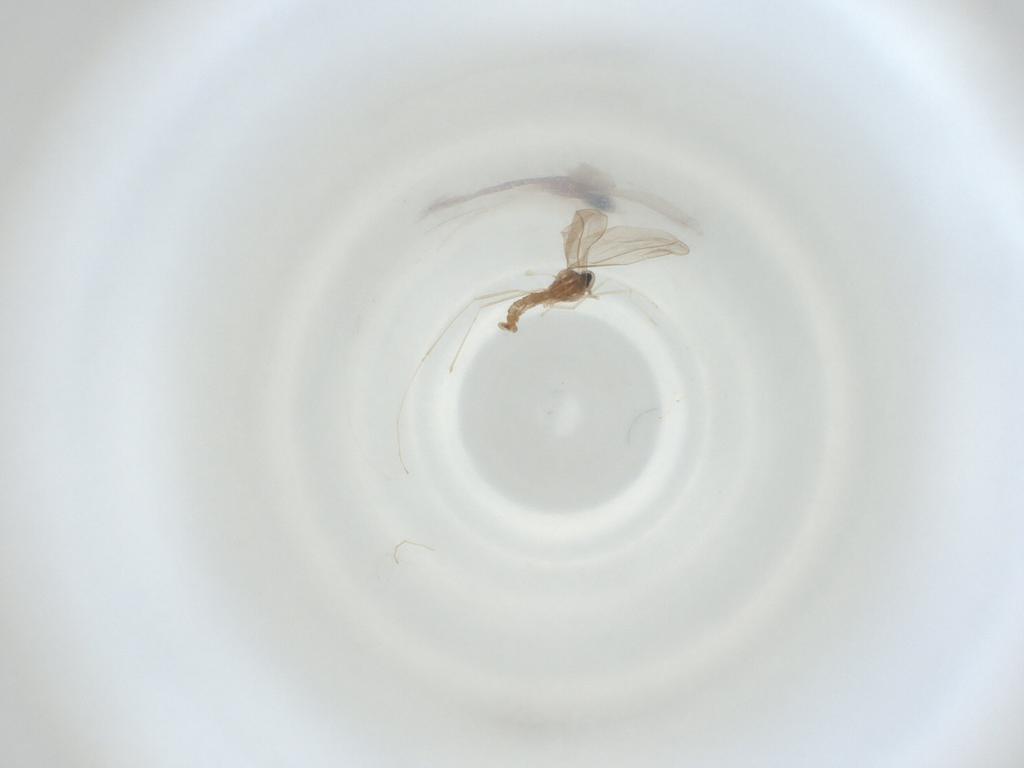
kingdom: Animalia
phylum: Arthropoda
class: Insecta
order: Diptera
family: Cecidomyiidae
